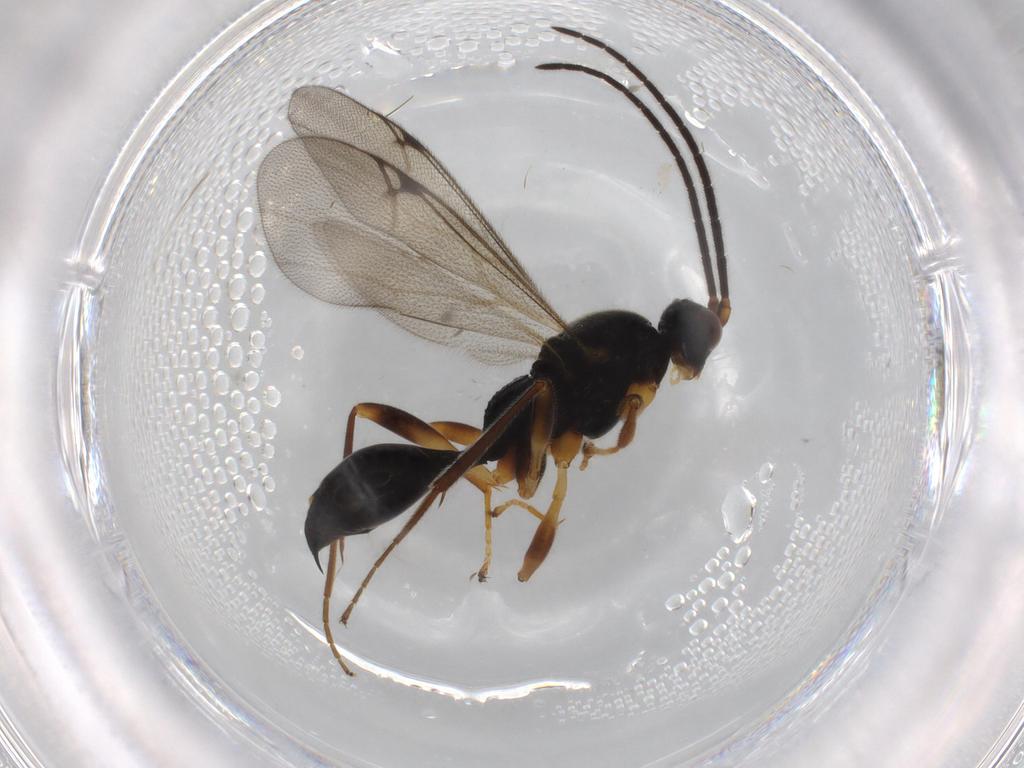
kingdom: Animalia
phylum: Arthropoda
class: Insecta
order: Hymenoptera
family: Proctotrupidae
